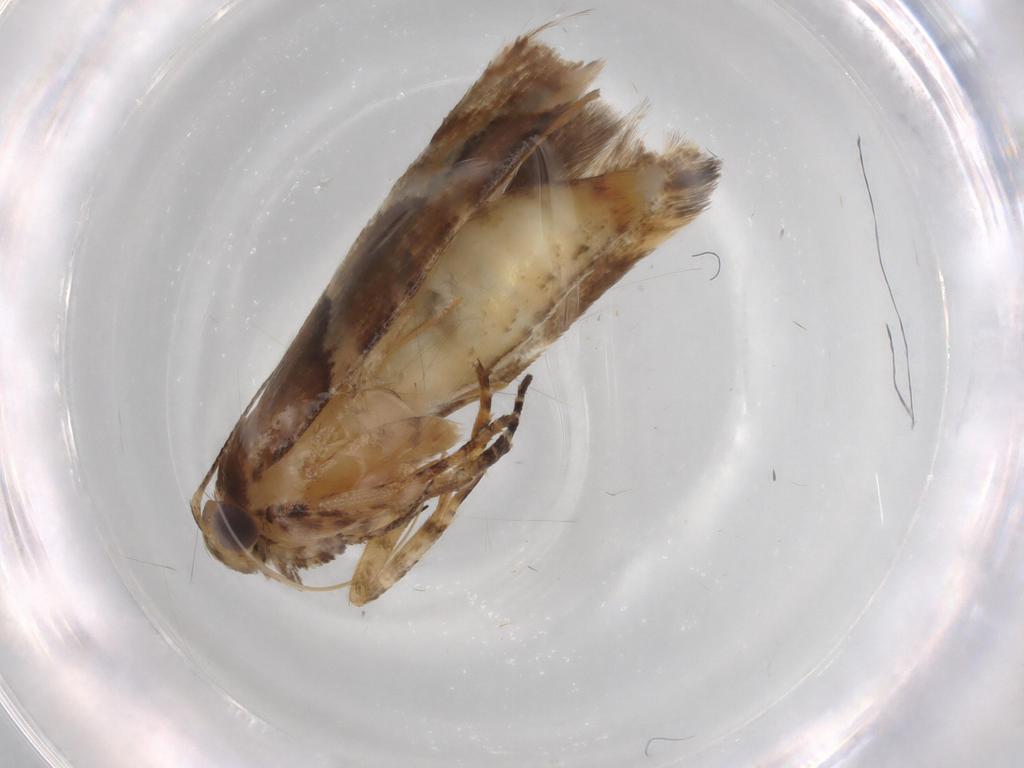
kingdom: Animalia
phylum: Arthropoda
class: Insecta
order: Lepidoptera
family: Gelechiidae
